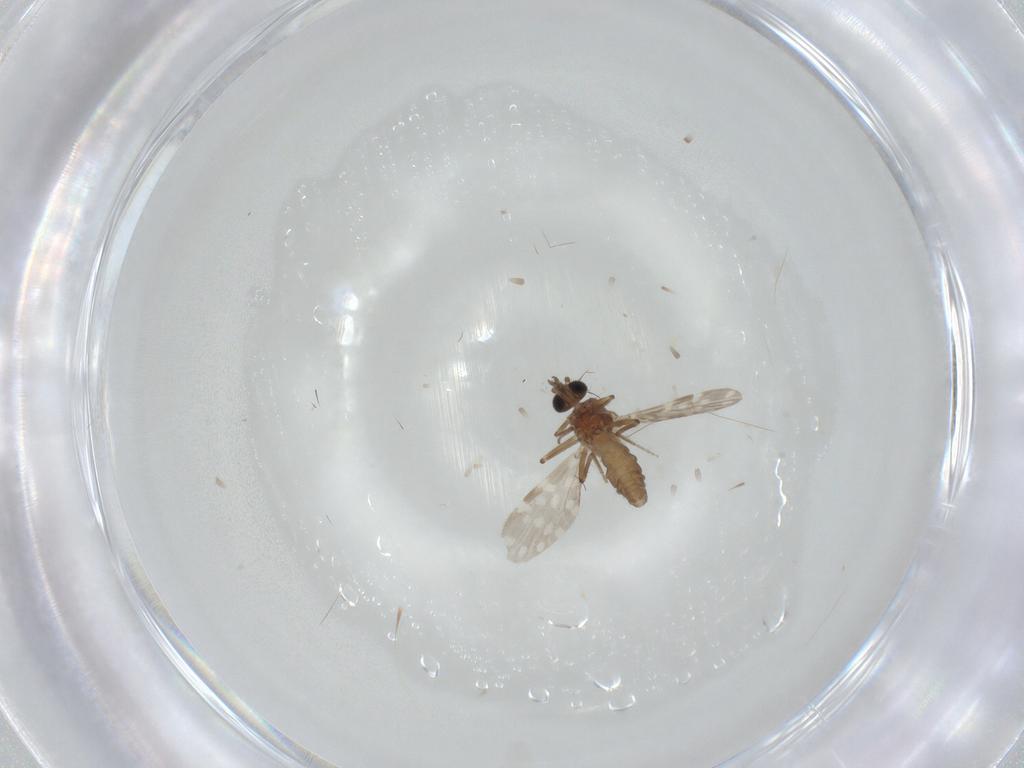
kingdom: Animalia
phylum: Arthropoda
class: Insecta
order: Diptera
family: Ceratopogonidae
